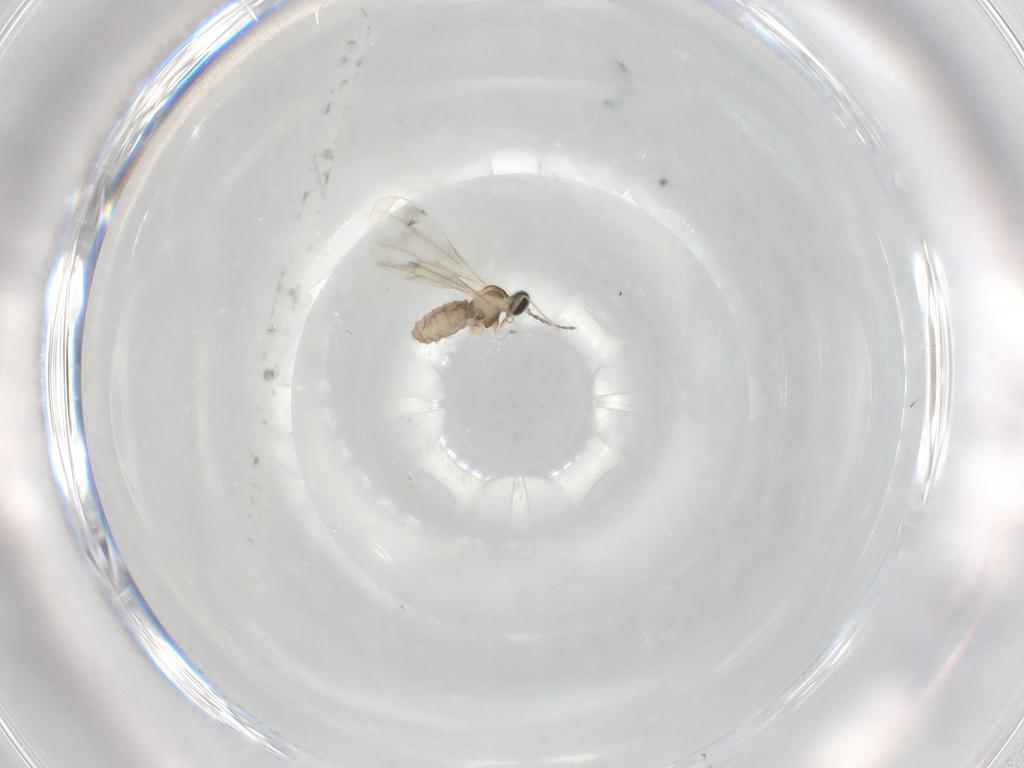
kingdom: Animalia
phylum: Arthropoda
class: Insecta
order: Diptera
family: Cecidomyiidae
